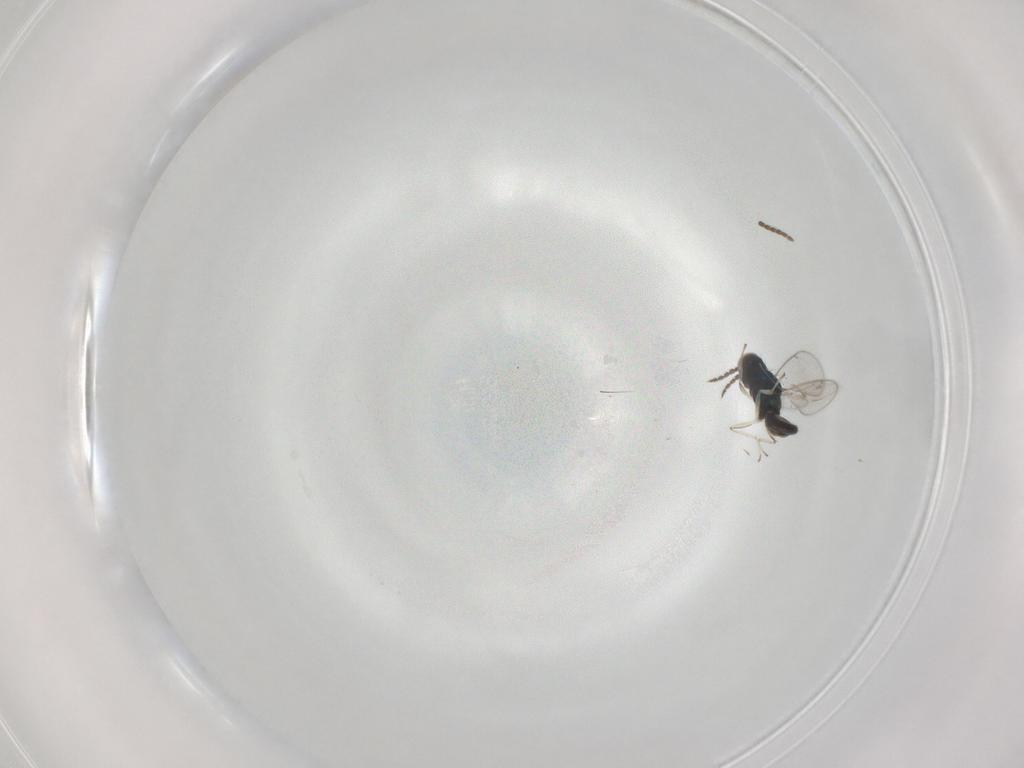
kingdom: Animalia
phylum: Arthropoda
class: Insecta
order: Hymenoptera
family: Eulophidae
